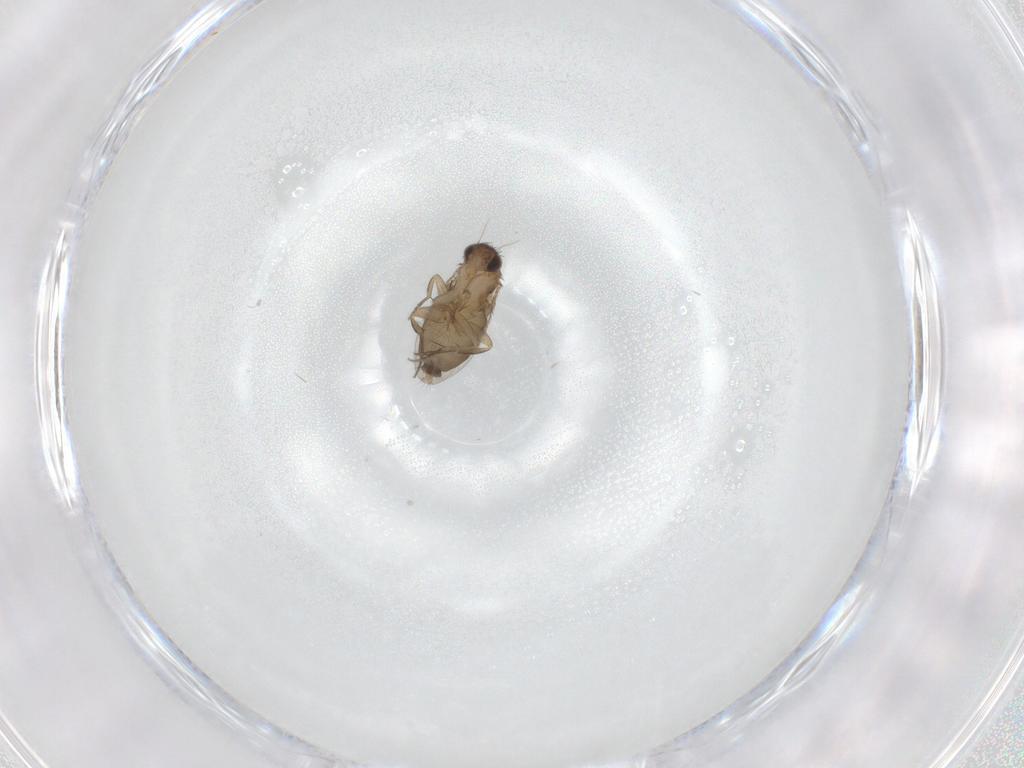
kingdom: Animalia
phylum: Arthropoda
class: Insecta
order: Diptera
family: Phoridae
